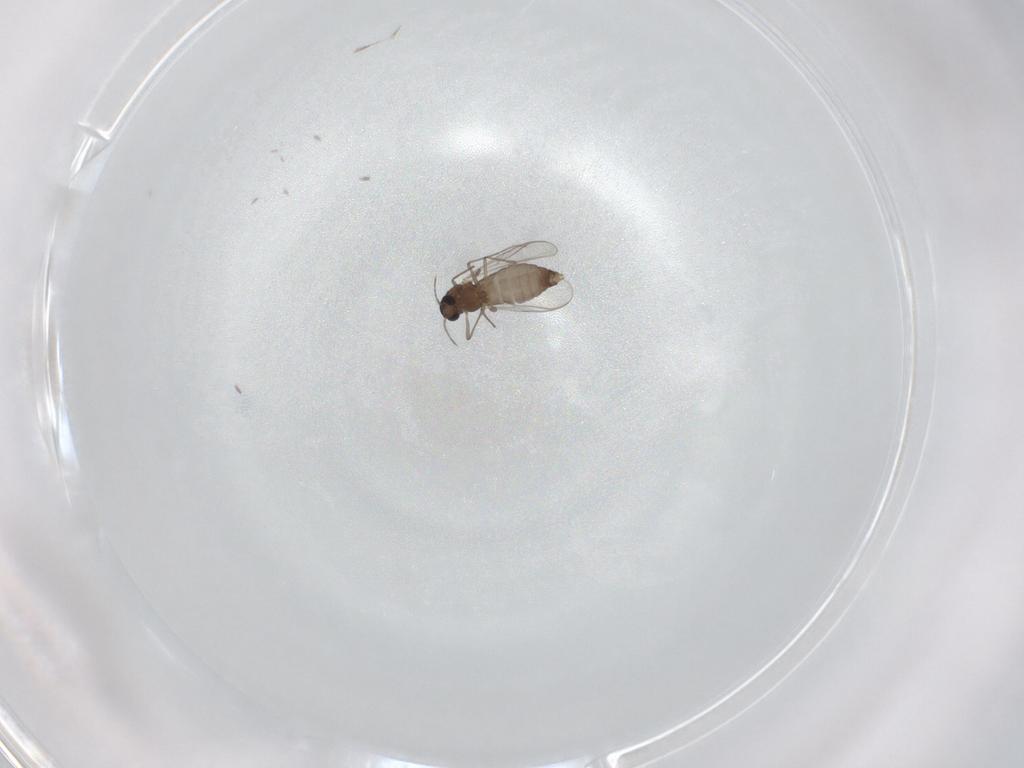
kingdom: Animalia
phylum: Arthropoda
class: Insecta
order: Diptera
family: Chironomidae
